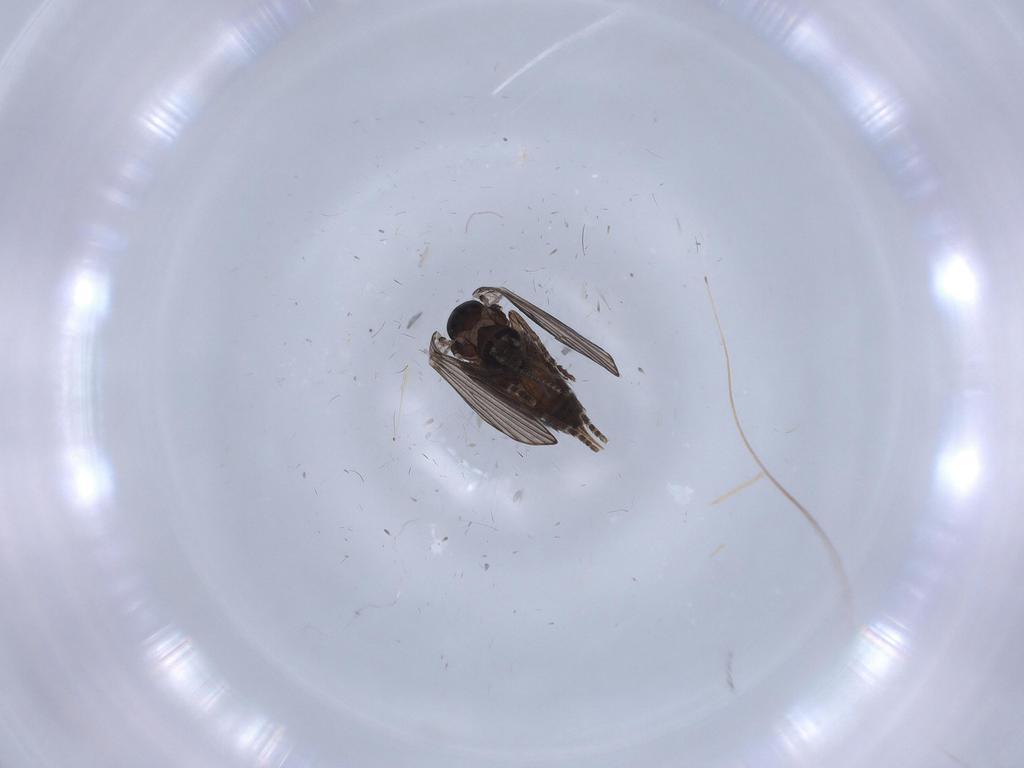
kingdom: Animalia
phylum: Arthropoda
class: Insecta
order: Diptera
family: Psychodidae
